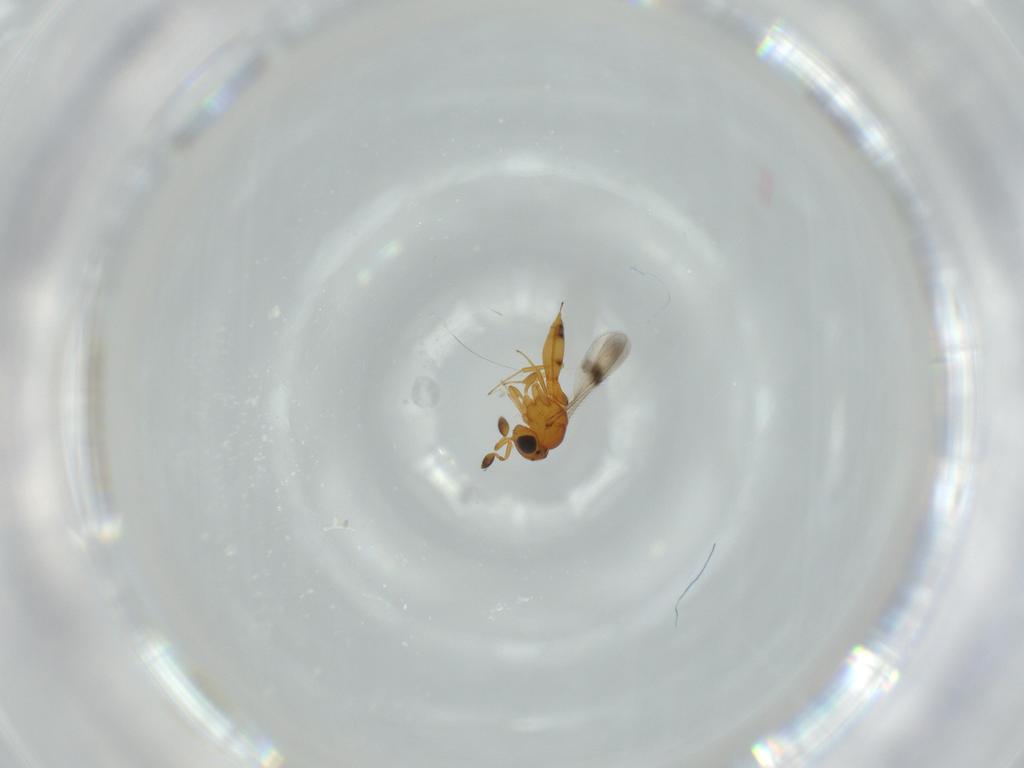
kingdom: Animalia
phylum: Arthropoda
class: Insecta
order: Hymenoptera
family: Scelionidae
